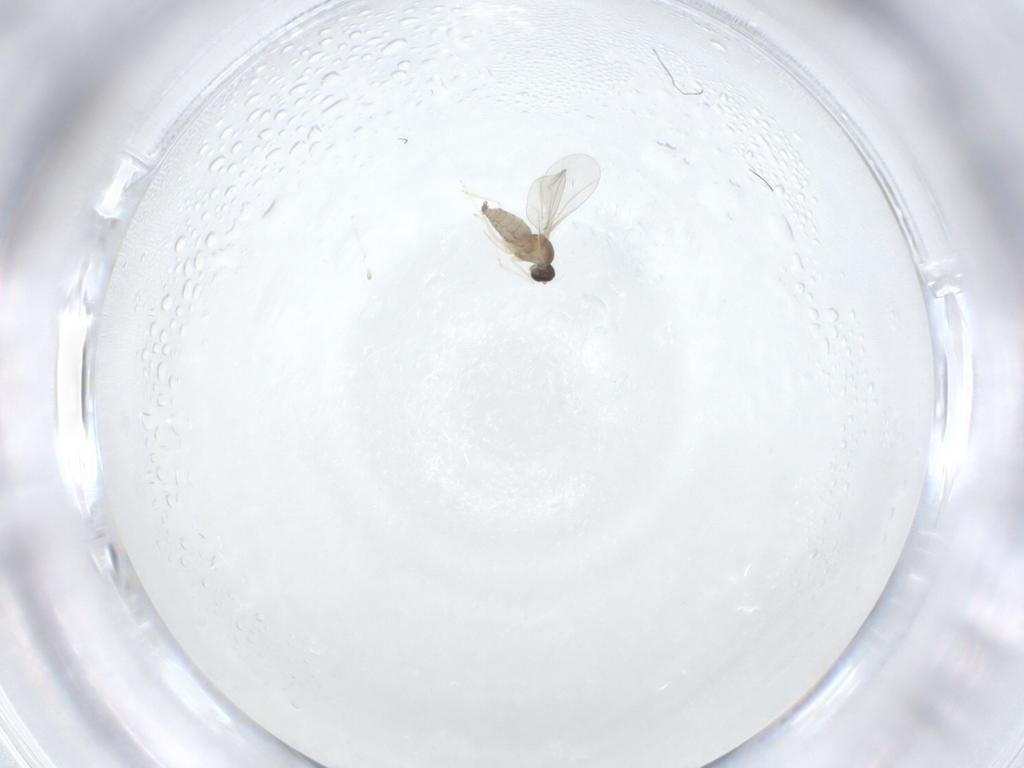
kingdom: Animalia
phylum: Arthropoda
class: Insecta
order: Diptera
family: Cecidomyiidae
